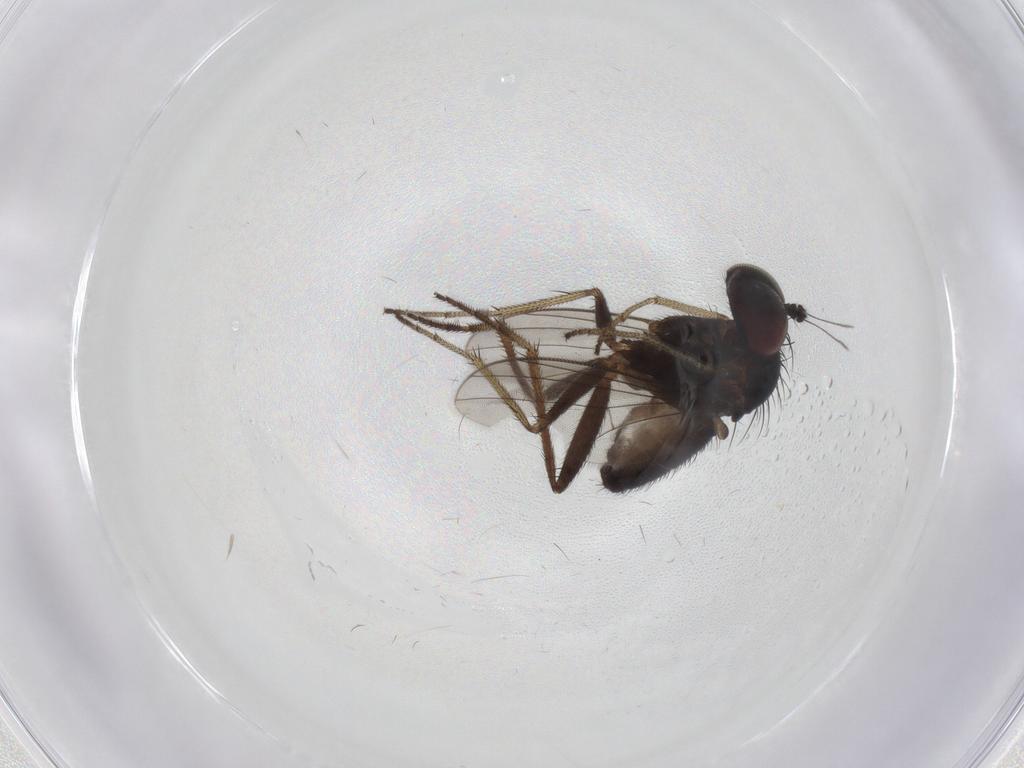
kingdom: Animalia
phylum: Arthropoda
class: Insecta
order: Diptera
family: Sciaridae
